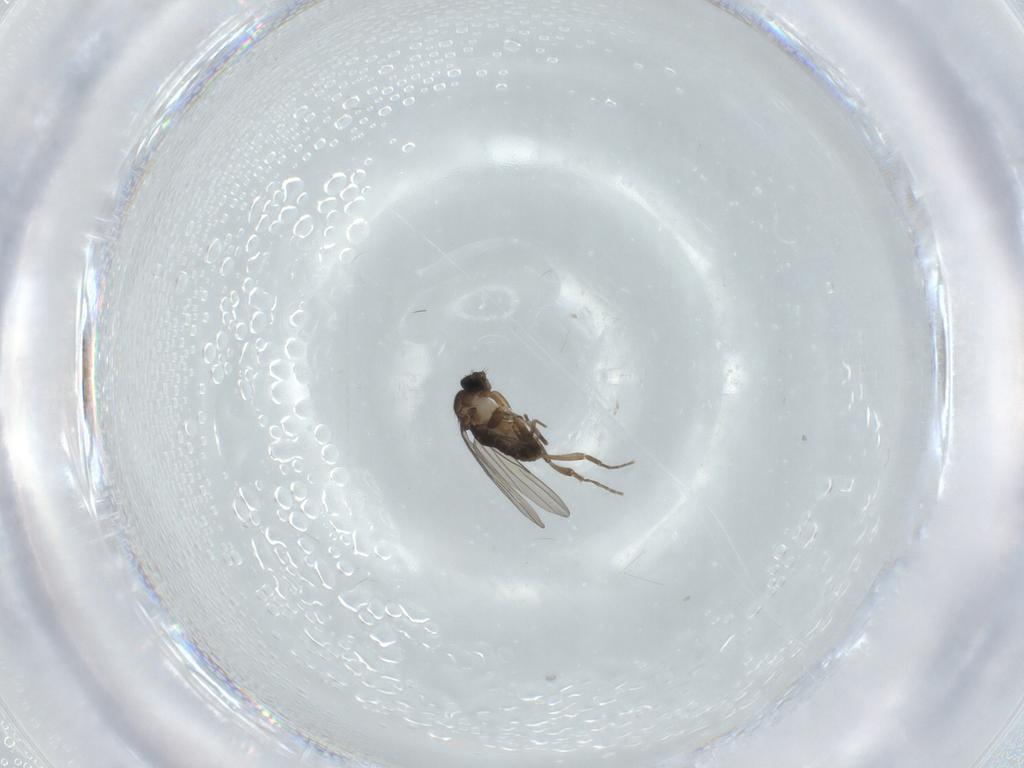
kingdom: Animalia
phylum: Arthropoda
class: Insecta
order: Diptera
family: Phoridae
